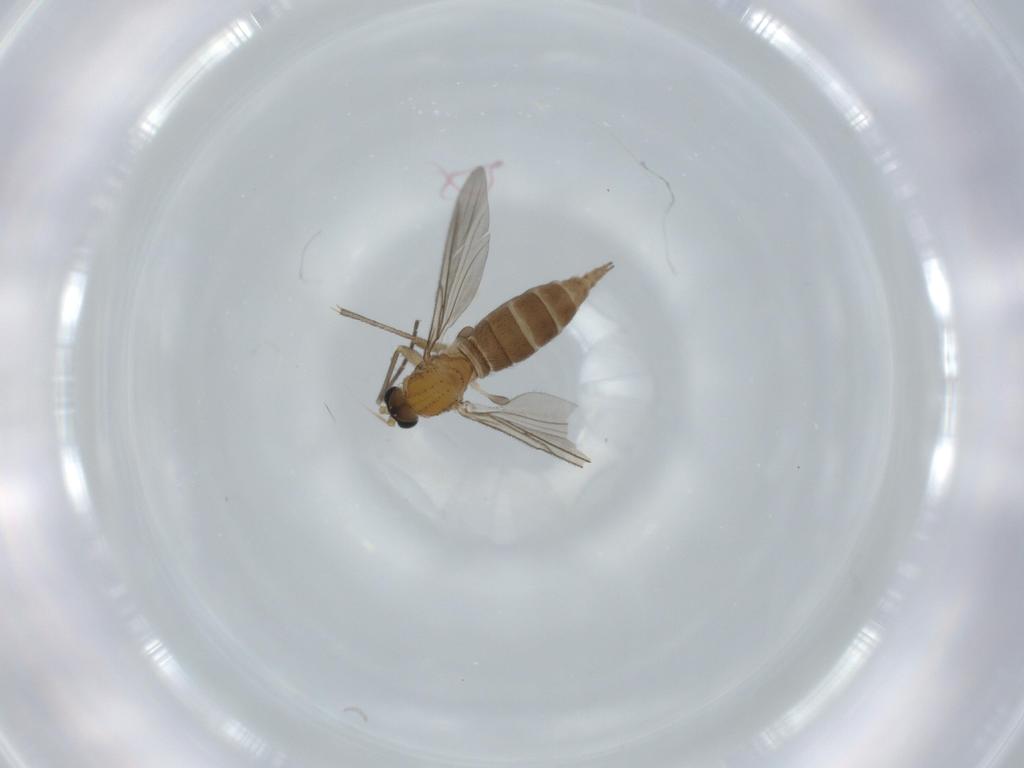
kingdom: Animalia
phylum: Arthropoda
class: Insecta
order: Diptera
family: Sciaridae
